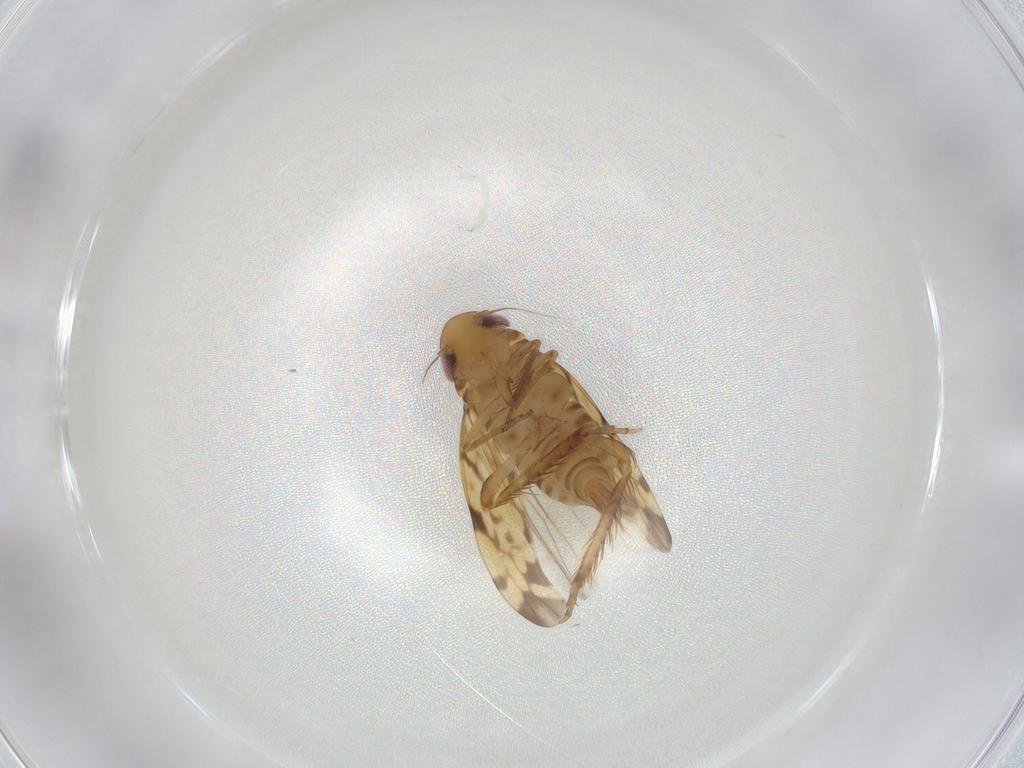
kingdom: Animalia
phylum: Arthropoda
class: Insecta
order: Hemiptera
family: Cicadellidae
